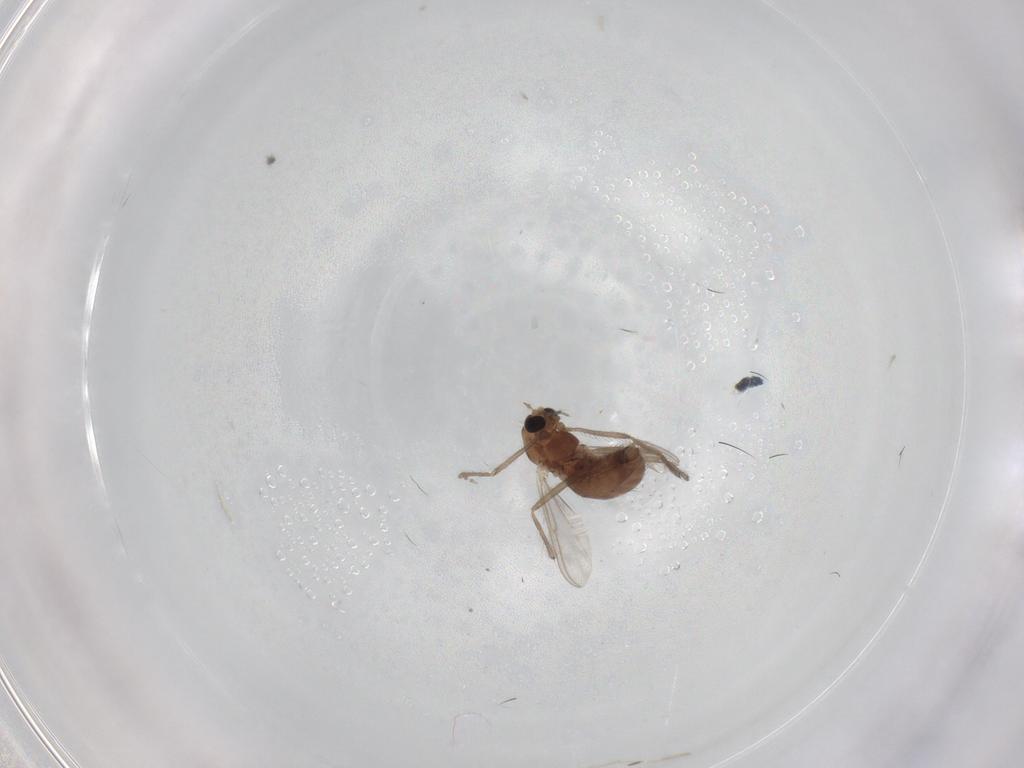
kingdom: Animalia
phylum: Arthropoda
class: Insecta
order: Diptera
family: Chironomidae
